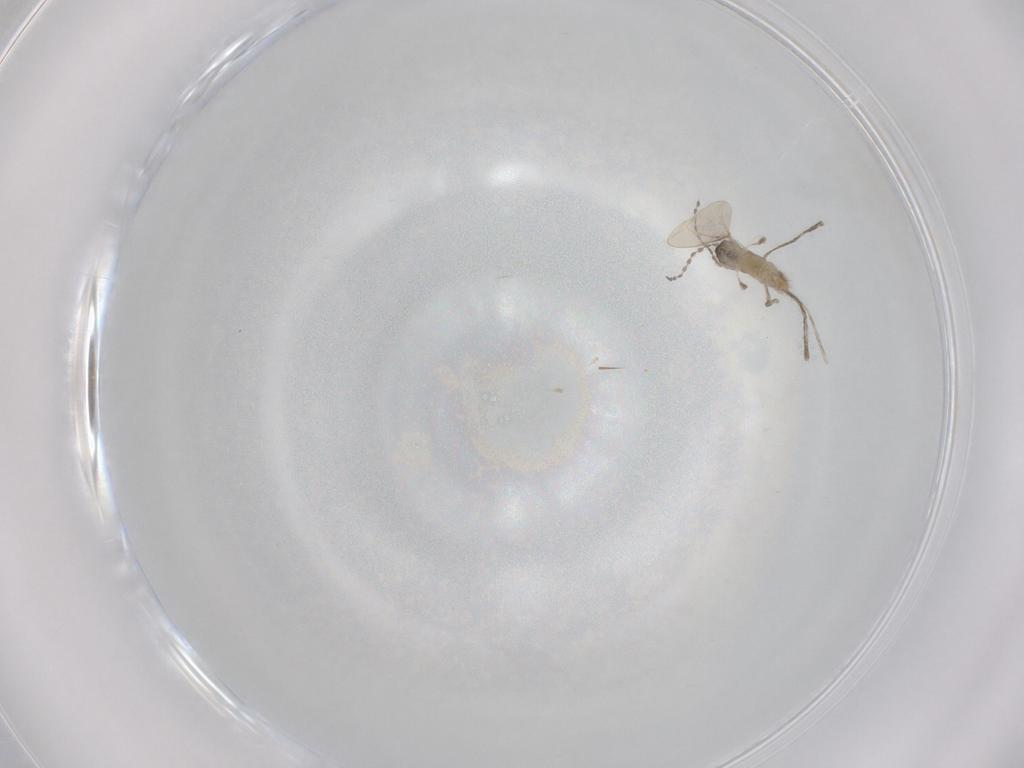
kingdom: Animalia
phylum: Arthropoda
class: Insecta
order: Diptera
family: Cecidomyiidae
